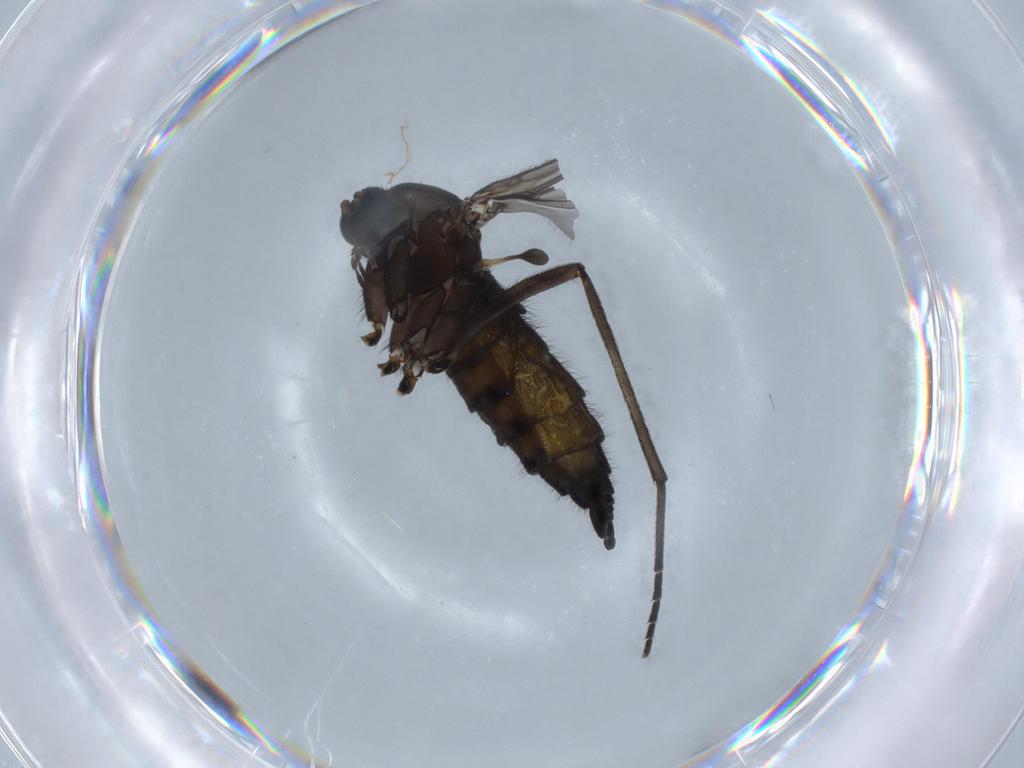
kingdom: Animalia
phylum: Arthropoda
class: Insecta
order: Diptera
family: Sciaridae
